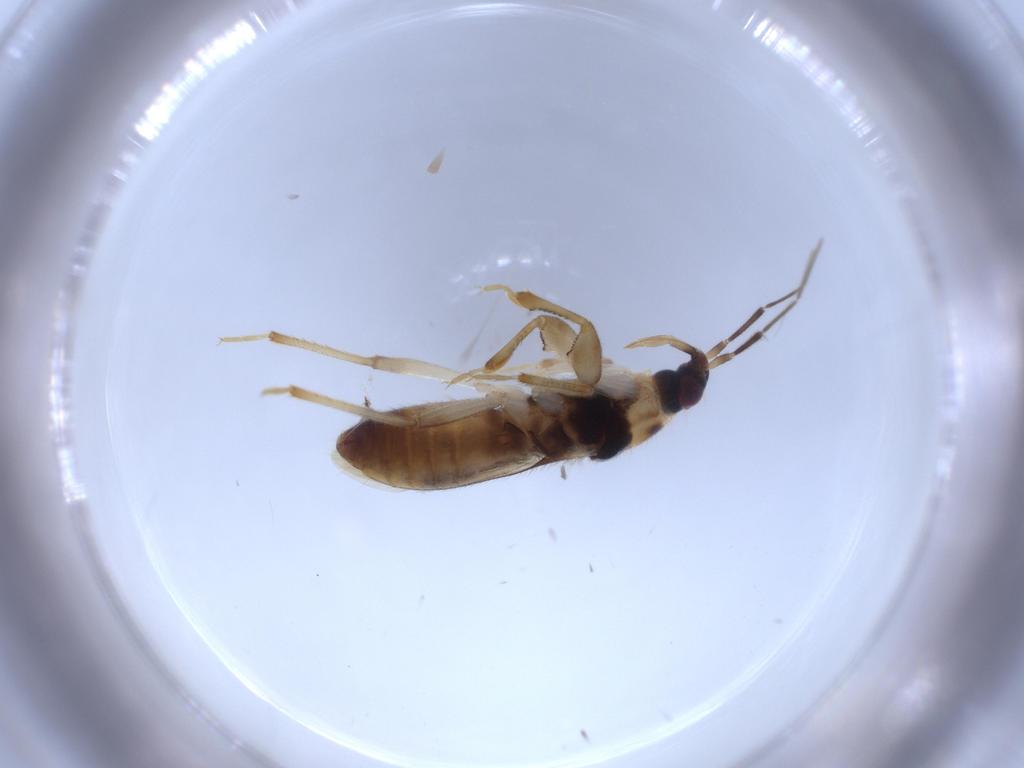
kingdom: Animalia
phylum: Arthropoda
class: Insecta
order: Hemiptera
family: Nabidae
